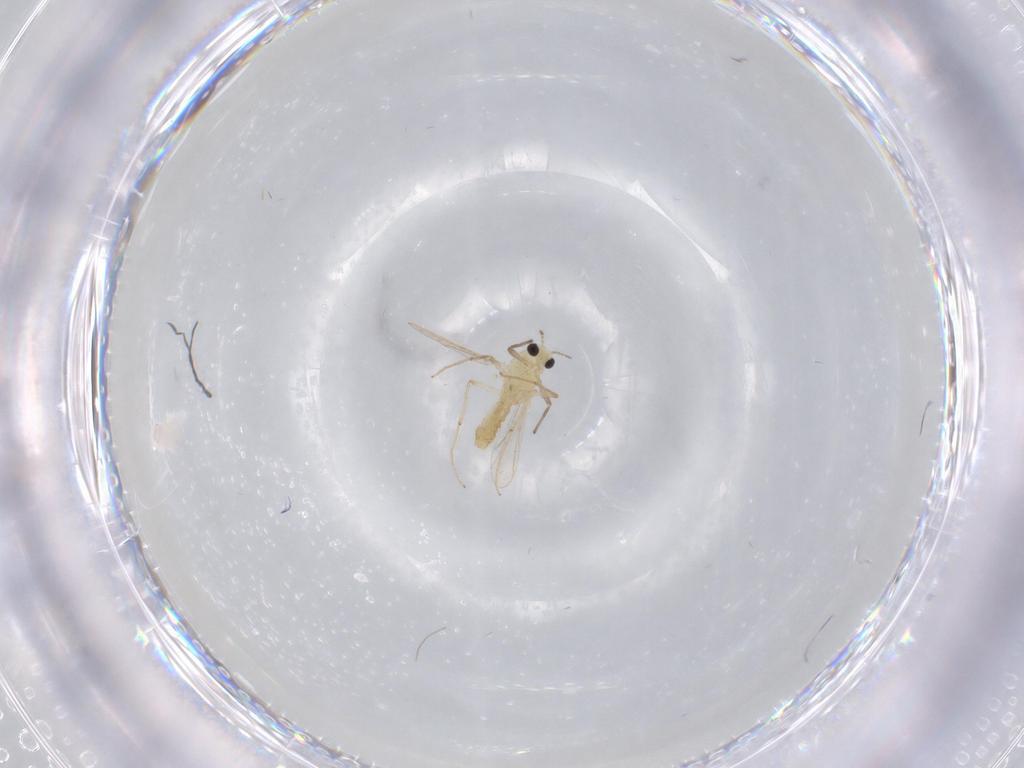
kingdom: Animalia
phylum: Arthropoda
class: Insecta
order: Diptera
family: Chironomidae
